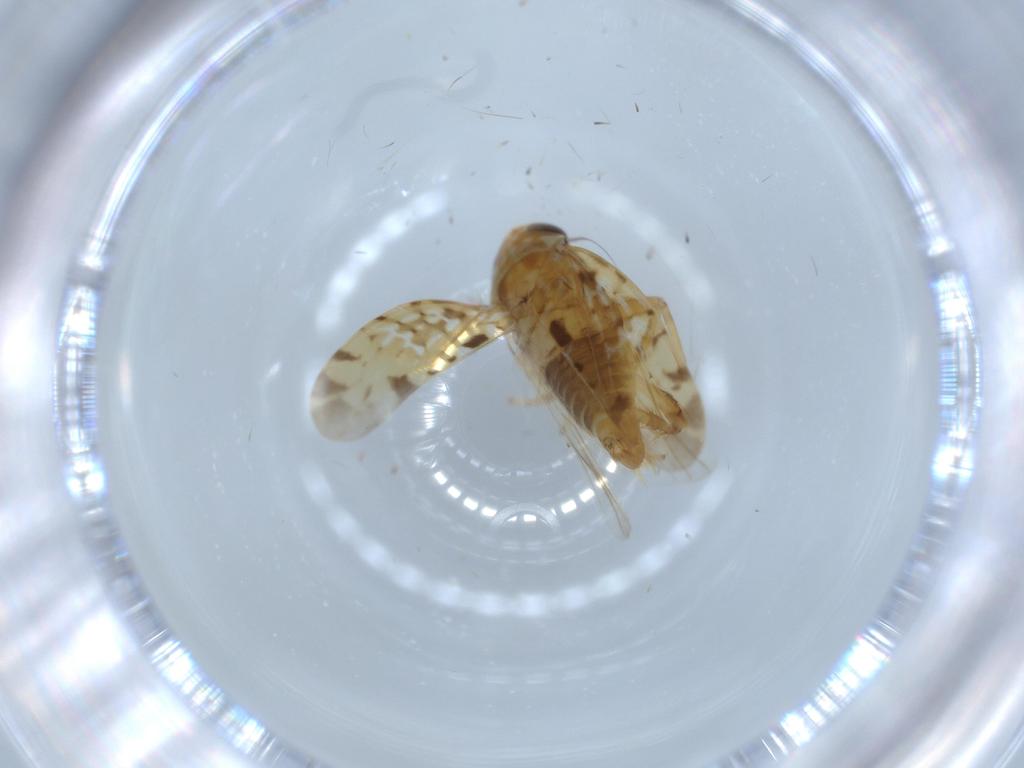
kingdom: Animalia
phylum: Arthropoda
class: Insecta
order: Hemiptera
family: Cicadellidae
